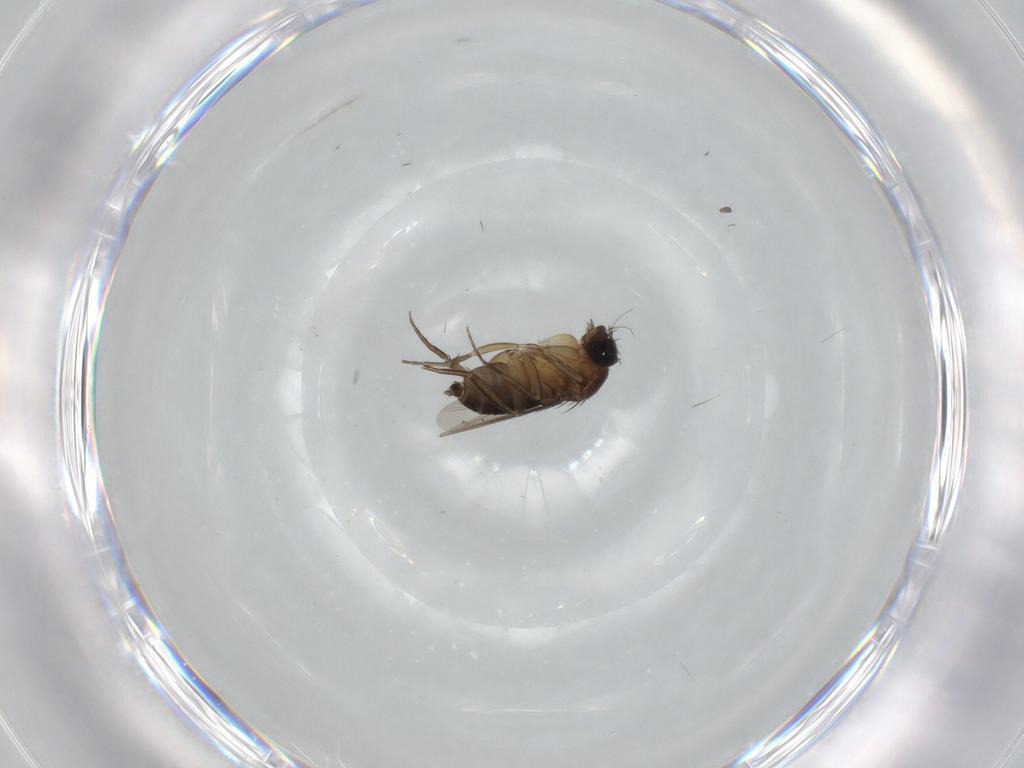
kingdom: Animalia
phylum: Arthropoda
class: Insecta
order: Diptera
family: Phoridae
